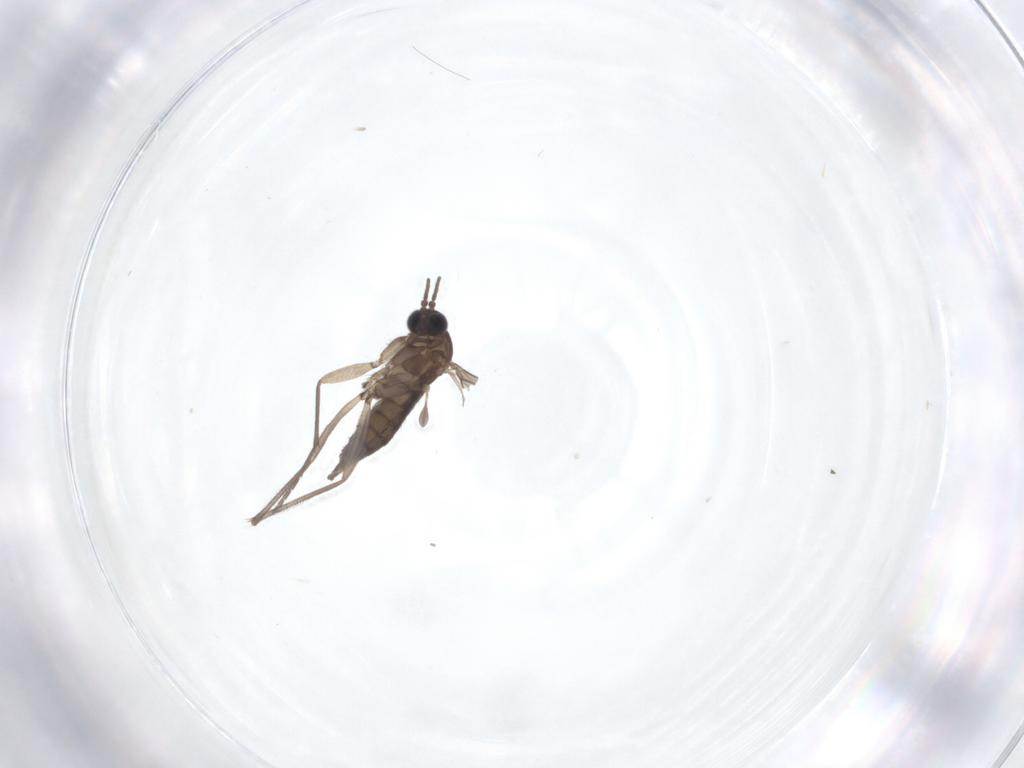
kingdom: Animalia
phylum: Arthropoda
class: Insecta
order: Diptera
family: Sciaridae
